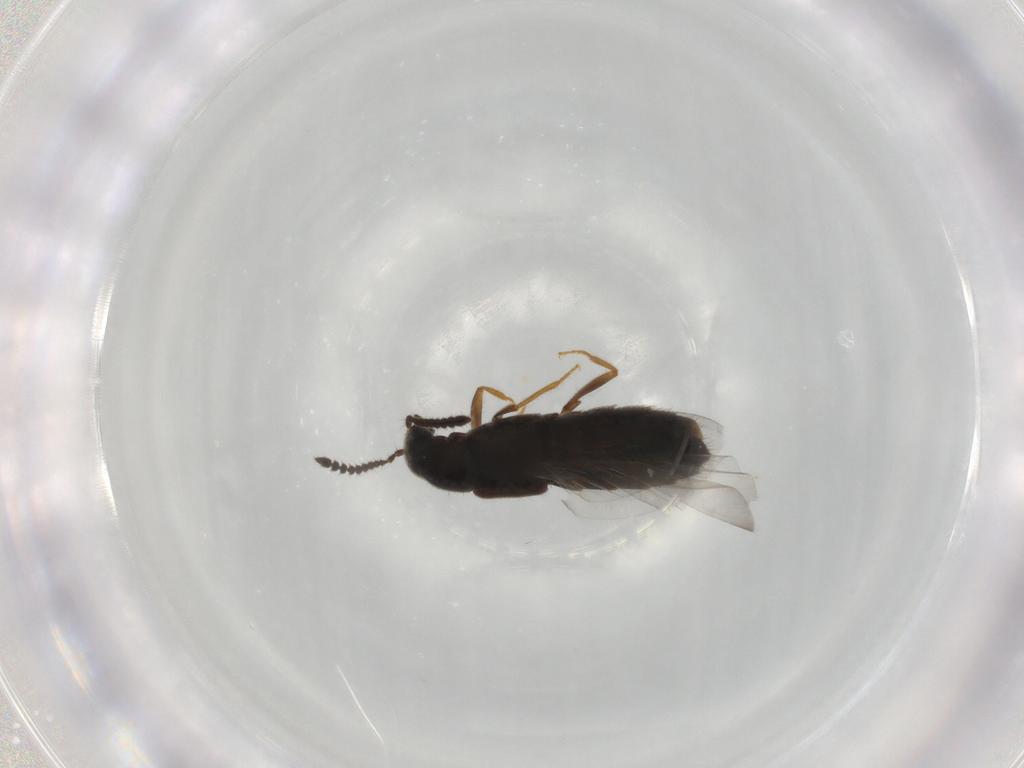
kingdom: Animalia
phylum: Arthropoda
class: Insecta
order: Coleoptera
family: Staphylinidae
